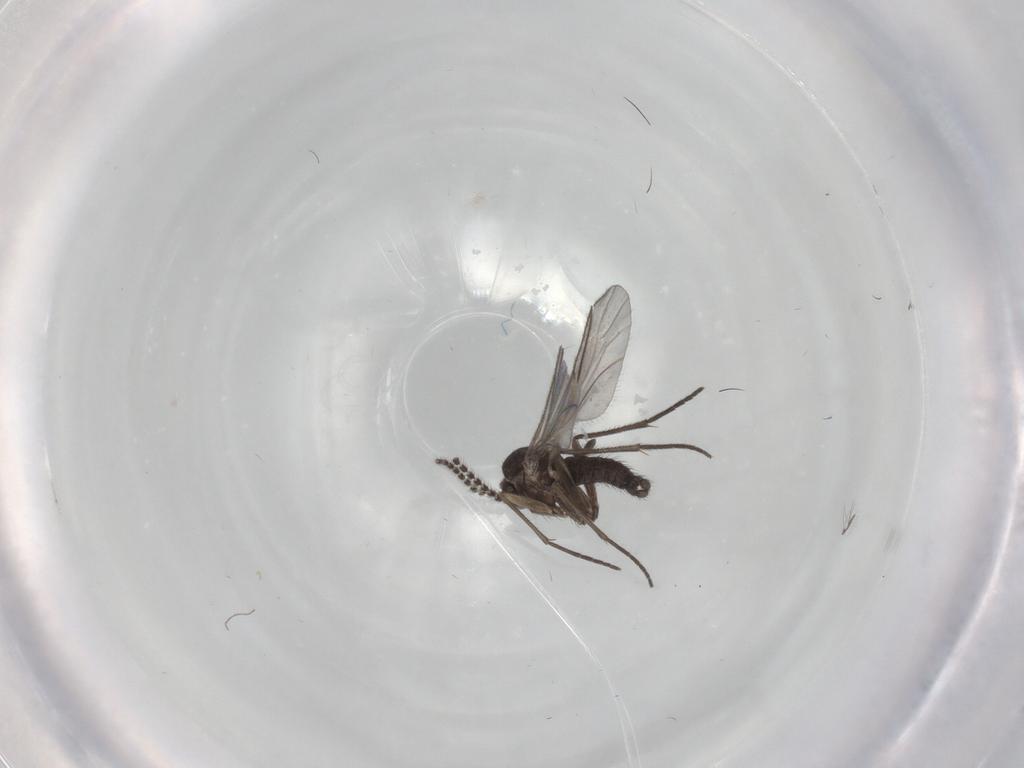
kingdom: Animalia
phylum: Arthropoda
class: Insecta
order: Diptera
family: Sciaridae
